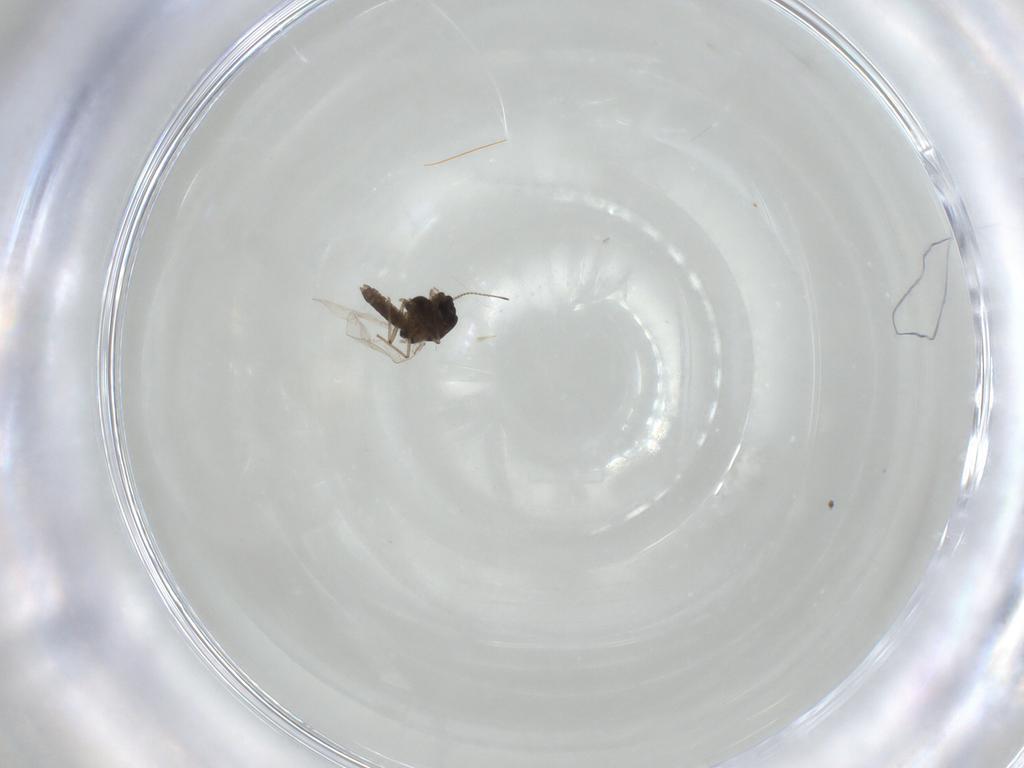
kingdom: Animalia
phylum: Arthropoda
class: Insecta
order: Diptera
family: Chironomidae
